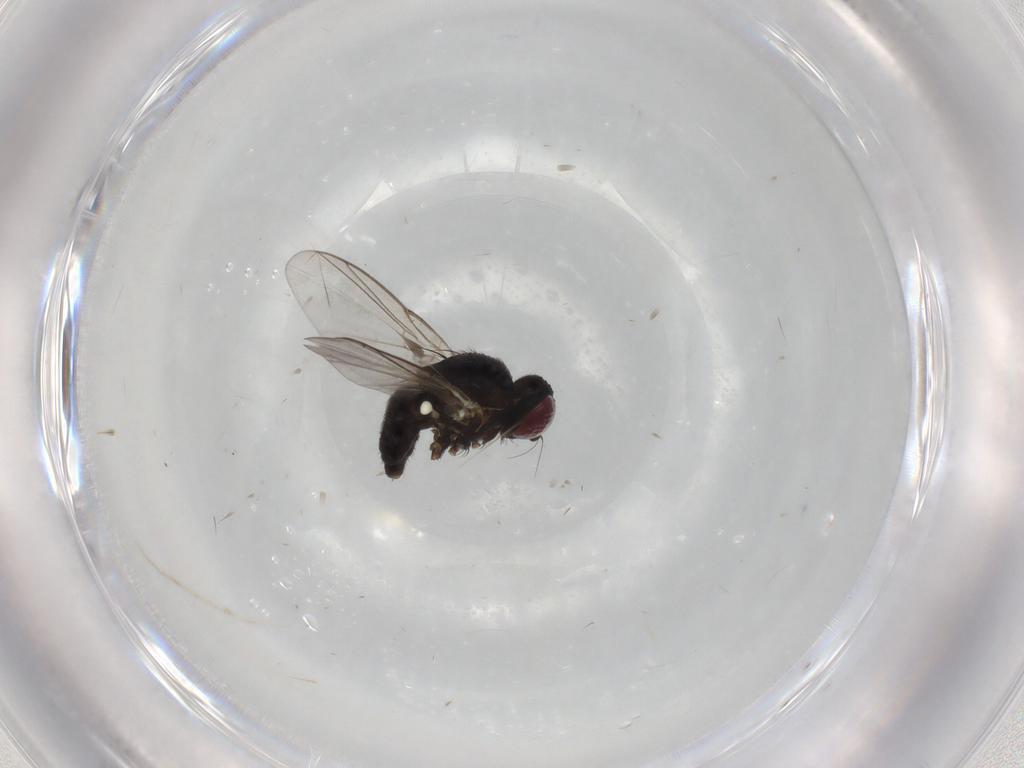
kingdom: Animalia
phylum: Arthropoda
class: Insecta
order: Diptera
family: Agromyzidae
